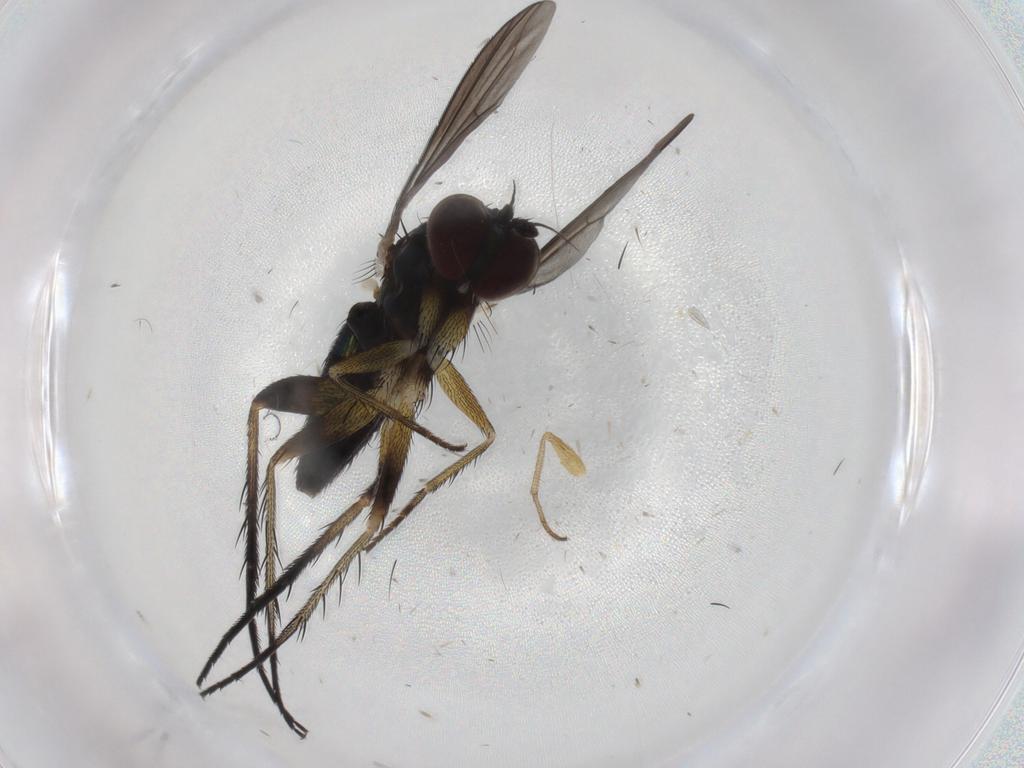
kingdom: Animalia
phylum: Arthropoda
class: Insecta
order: Diptera
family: Dolichopodidae
